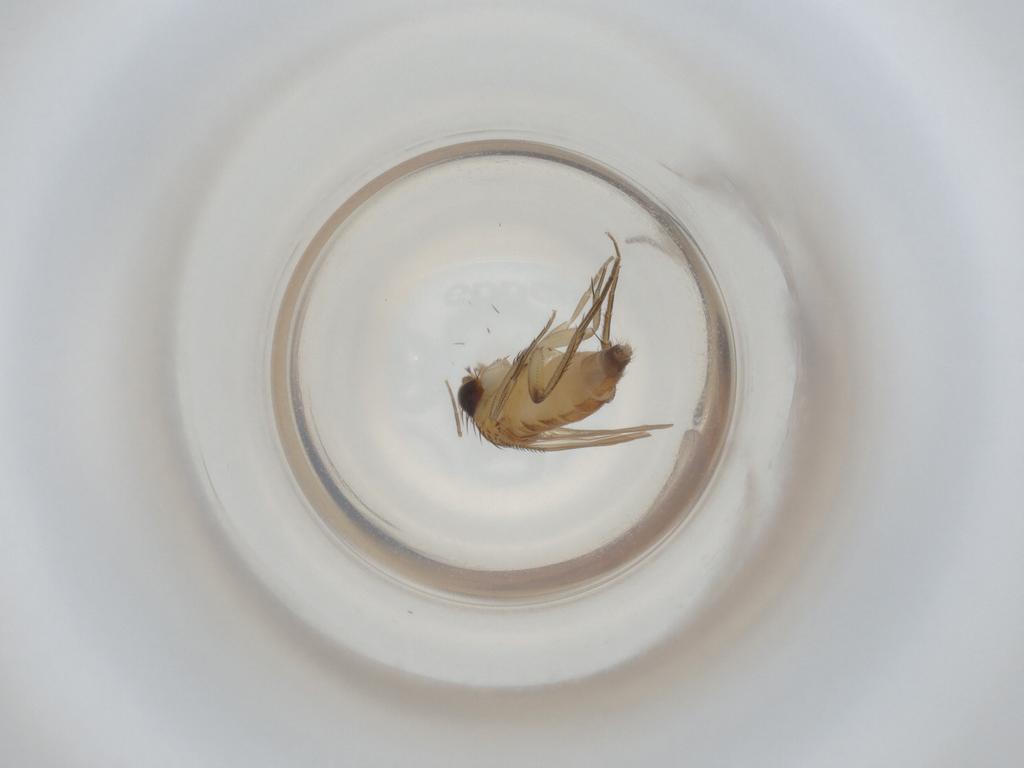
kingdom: Animalia
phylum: Arthropoda
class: Insecta
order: Diptera
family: Phoridae
